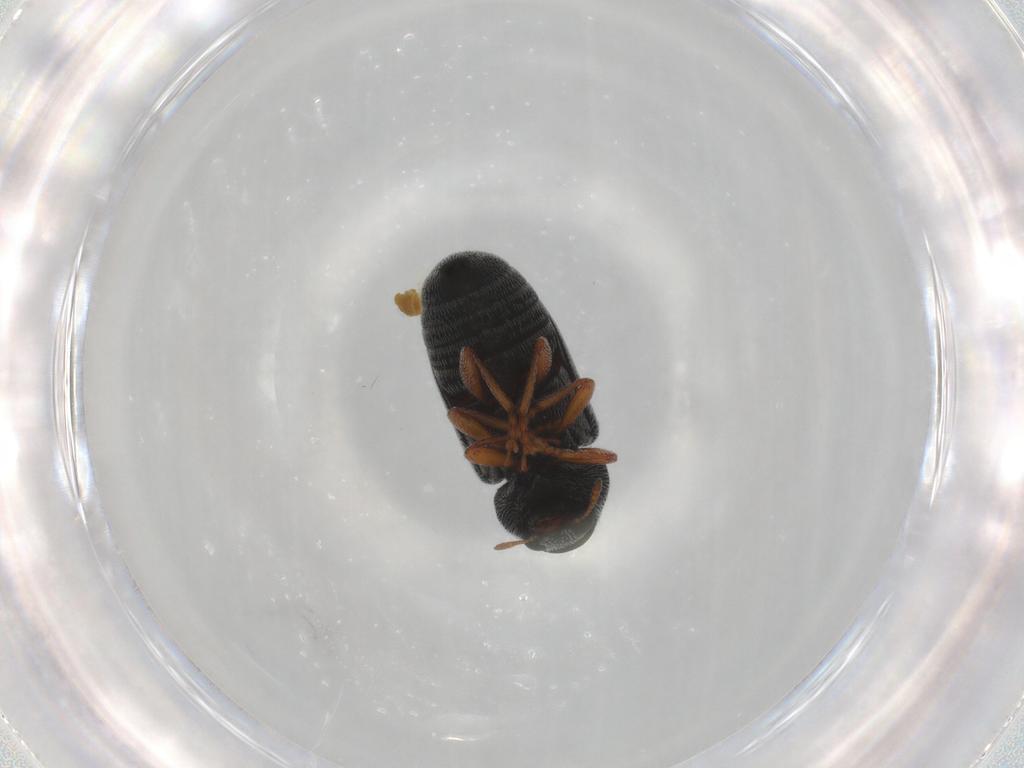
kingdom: Animalia
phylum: Arthropoda
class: Insecta
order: Coleoptera
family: Anthribidae
